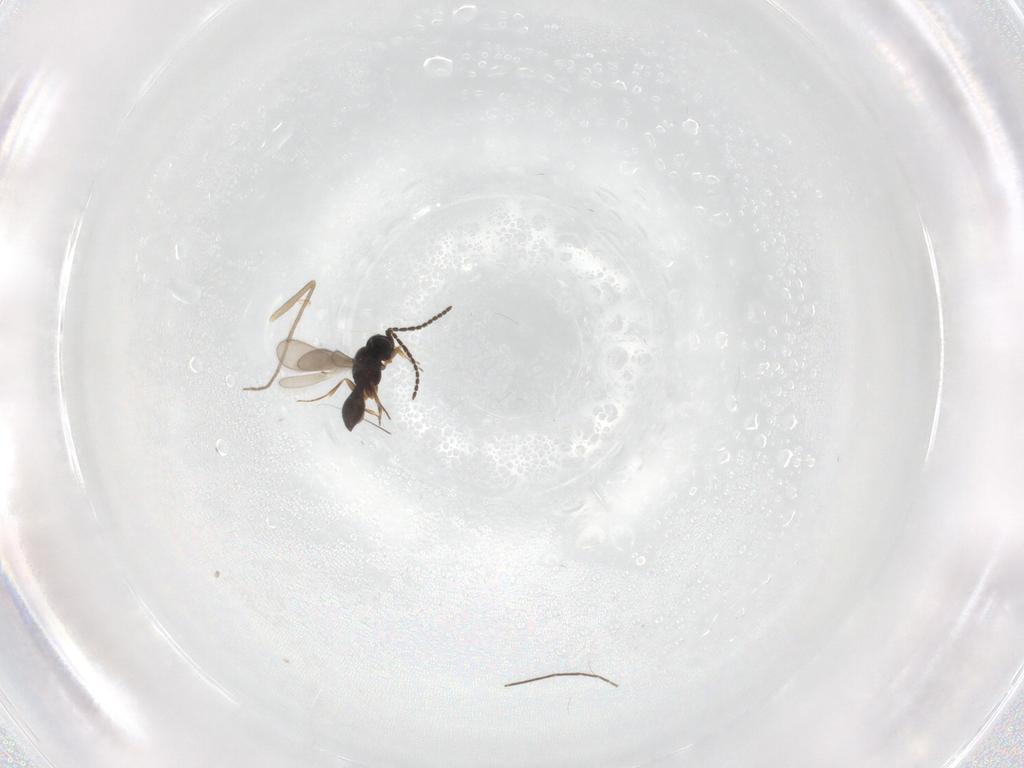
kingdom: Animalia
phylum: Arthropoda
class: Insecta
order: Hymenoptera
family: Scelionidae
